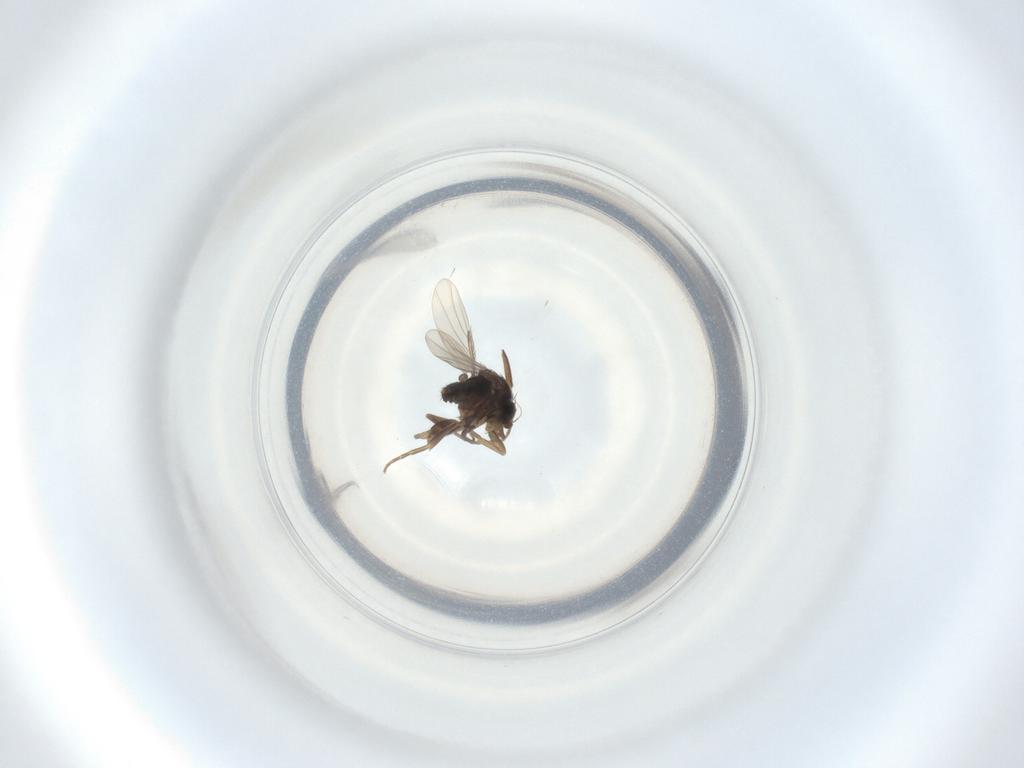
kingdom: Animalia
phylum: Arthropoda
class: Insecta
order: Diptera
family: Phoridae
